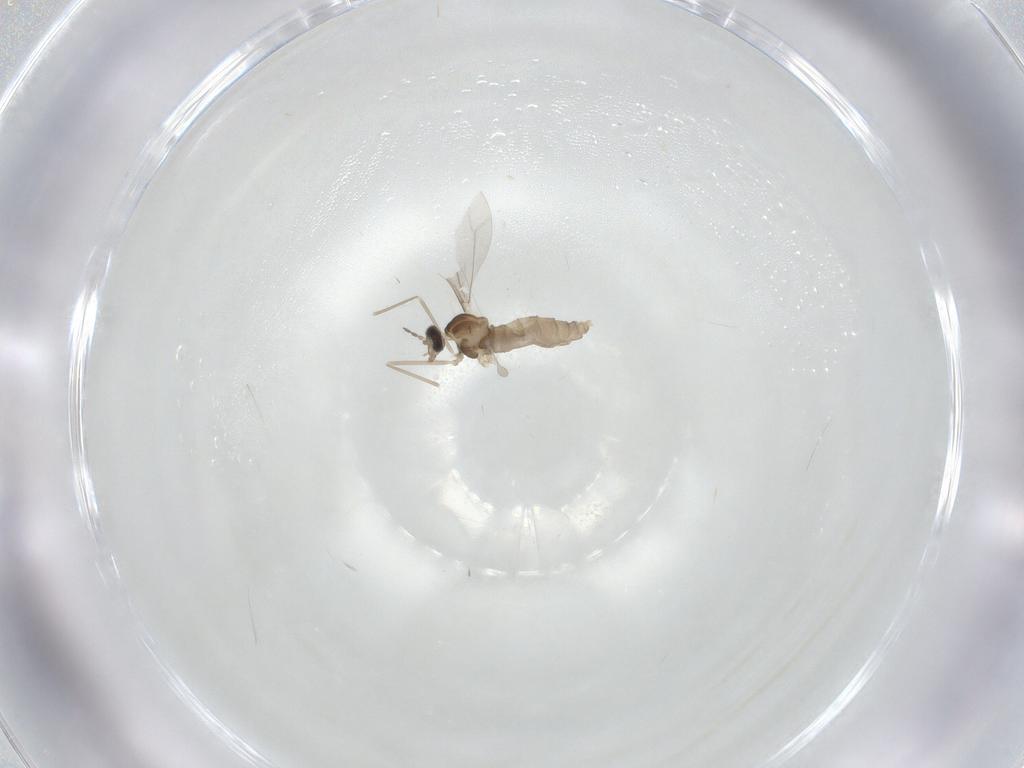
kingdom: Animalia
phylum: Arthropoda
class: Insecta
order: Diptera
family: Cecidomyiidae
